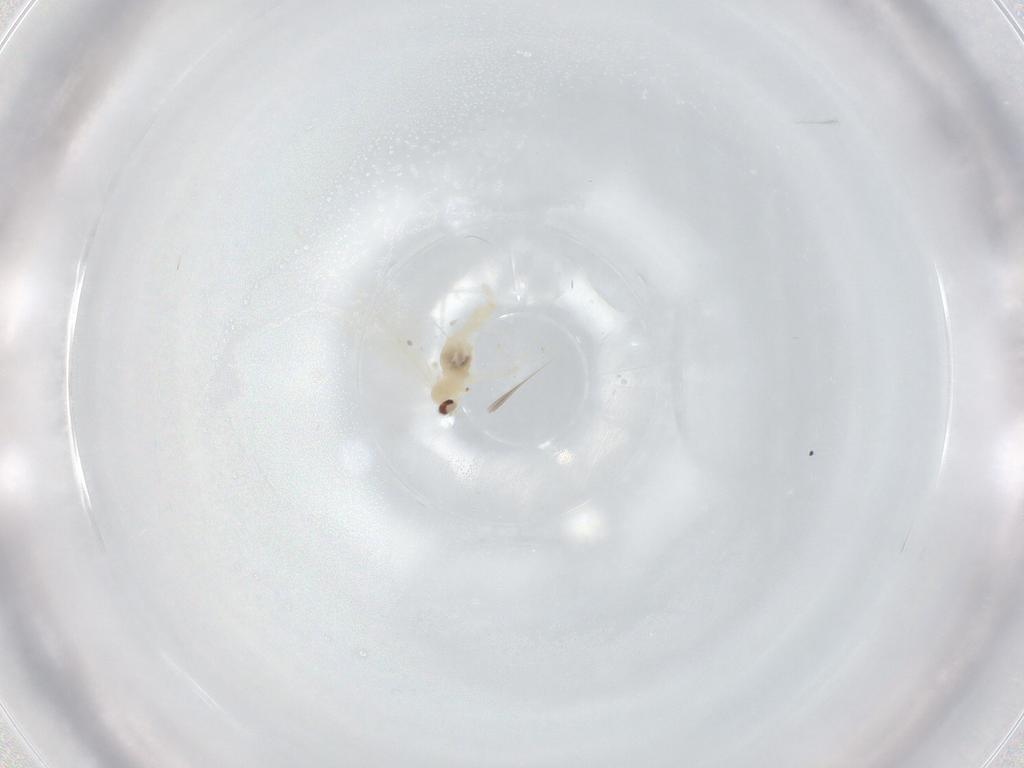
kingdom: Animalia
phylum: Arthropoda
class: Insecta
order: Diptera
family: Cecidomyiidae
